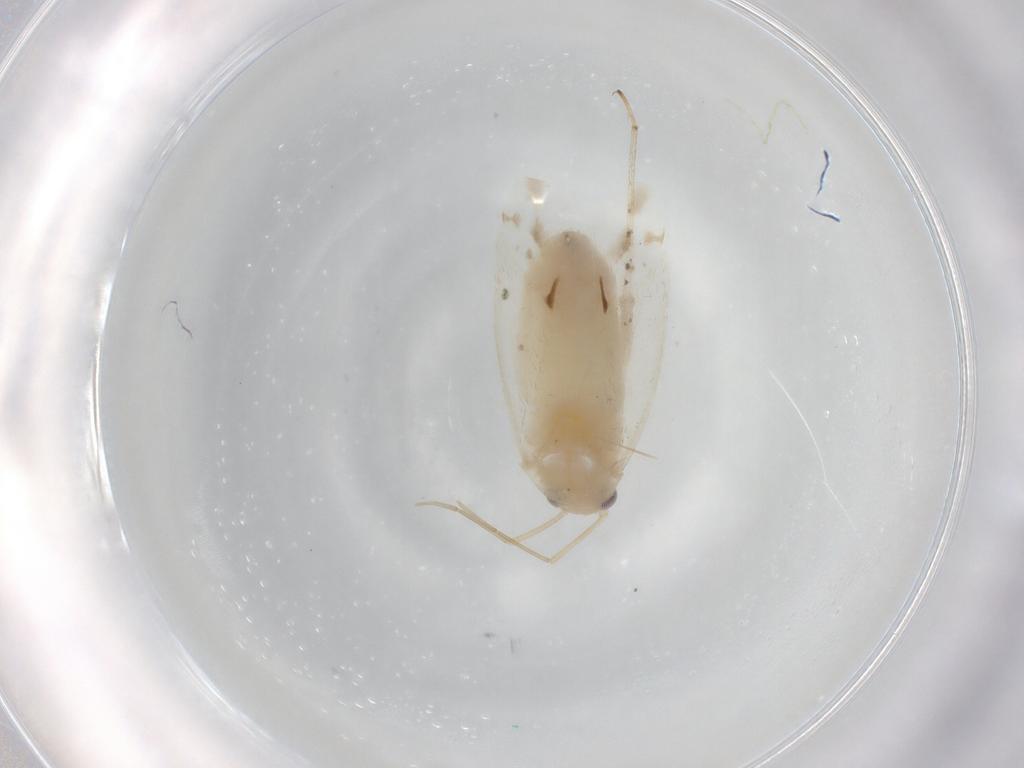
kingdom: Animalia
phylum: Arthropoda
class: Insecta
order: Hemiptera
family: Miridae
